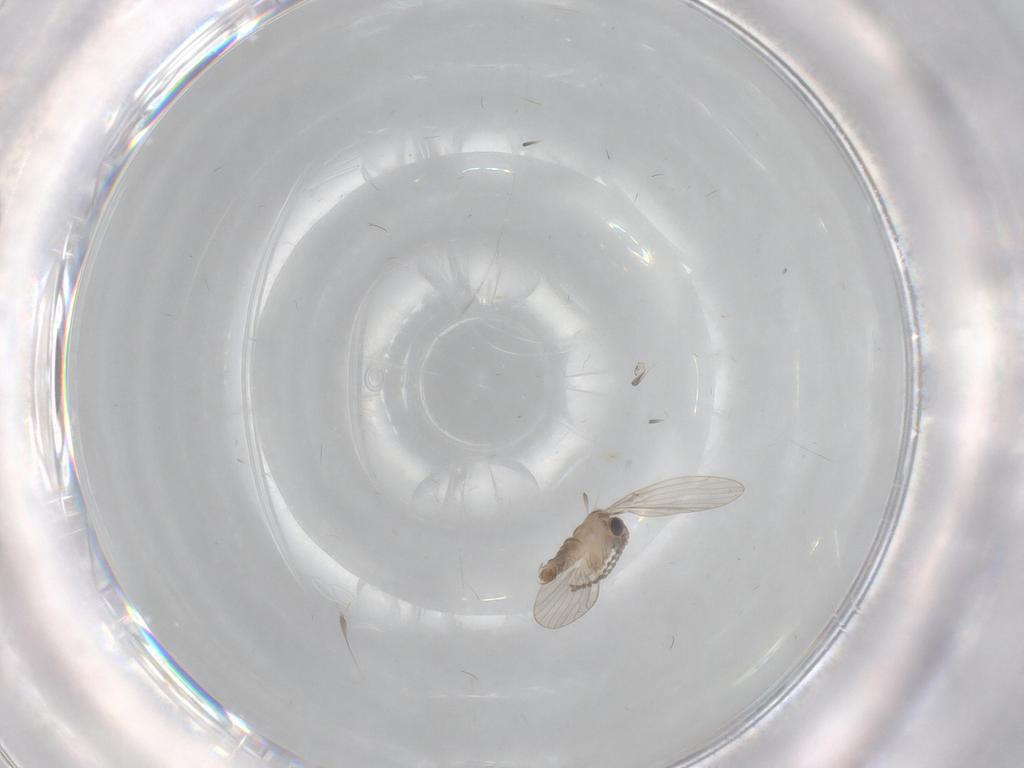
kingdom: Animalia
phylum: Arthropoda
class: Insecta
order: Diptera
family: Psychodidae
